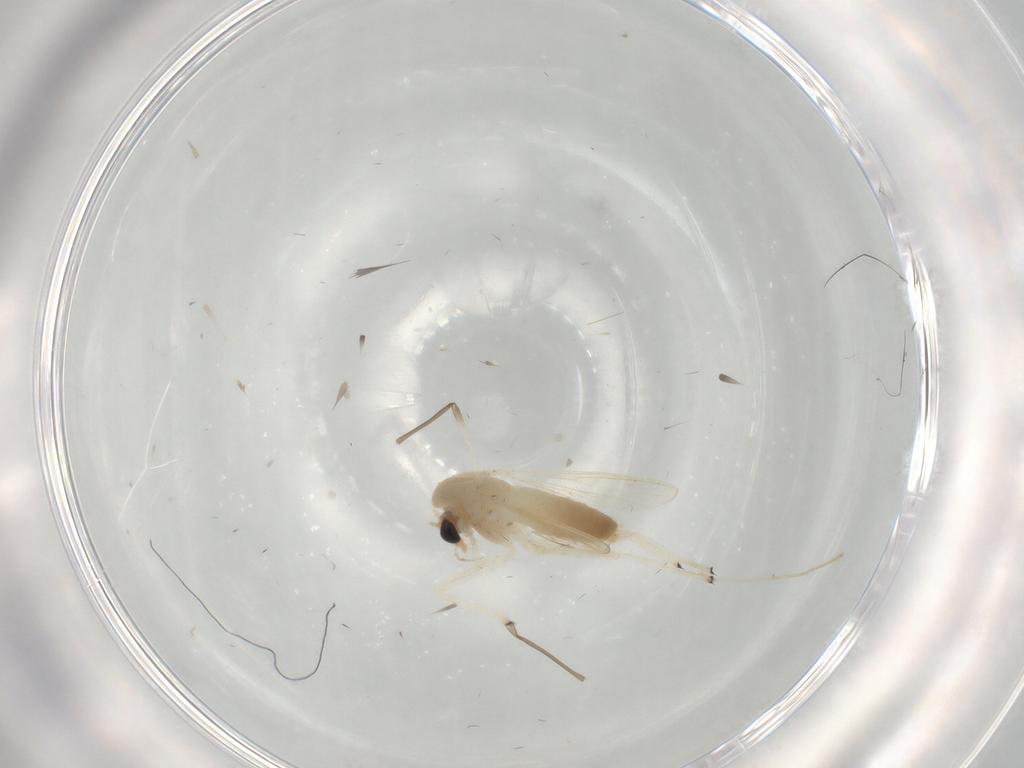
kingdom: Animalia
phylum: Arthropoda
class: Insecta
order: Diptera
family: Chironomidae
